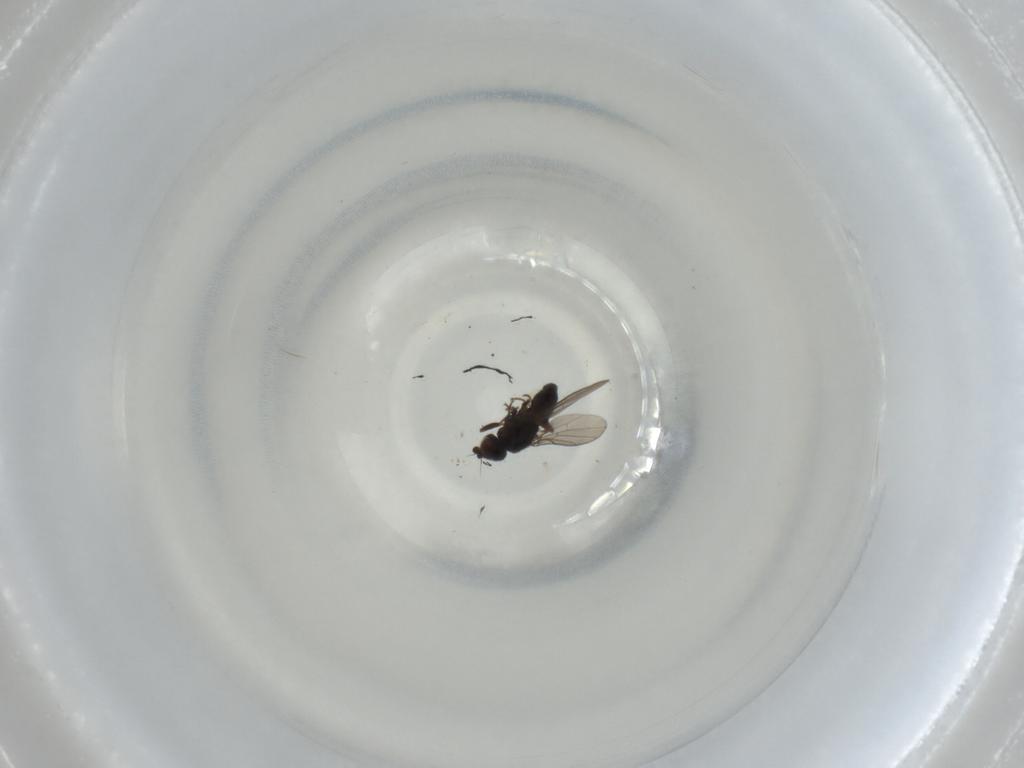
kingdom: Animalia
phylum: Arthropoda
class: Insecta
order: Diptera
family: Chloropidae
